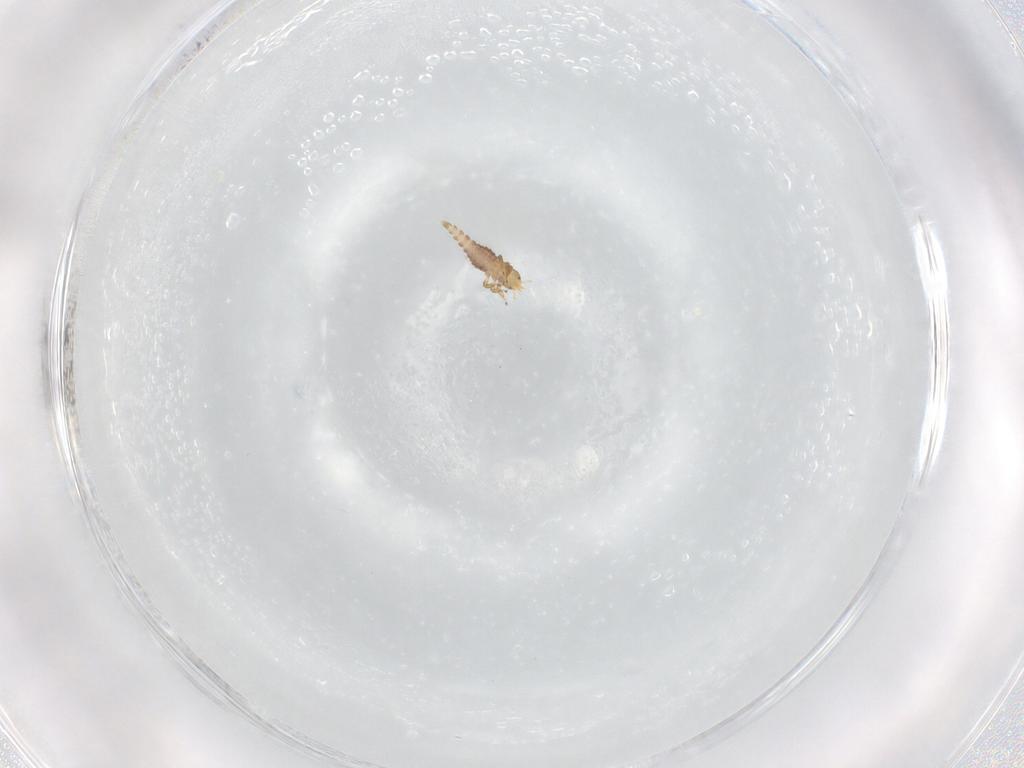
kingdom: Animalia
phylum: Arthropoda
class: Insecta
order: Neuroptera
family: Mantispidae
